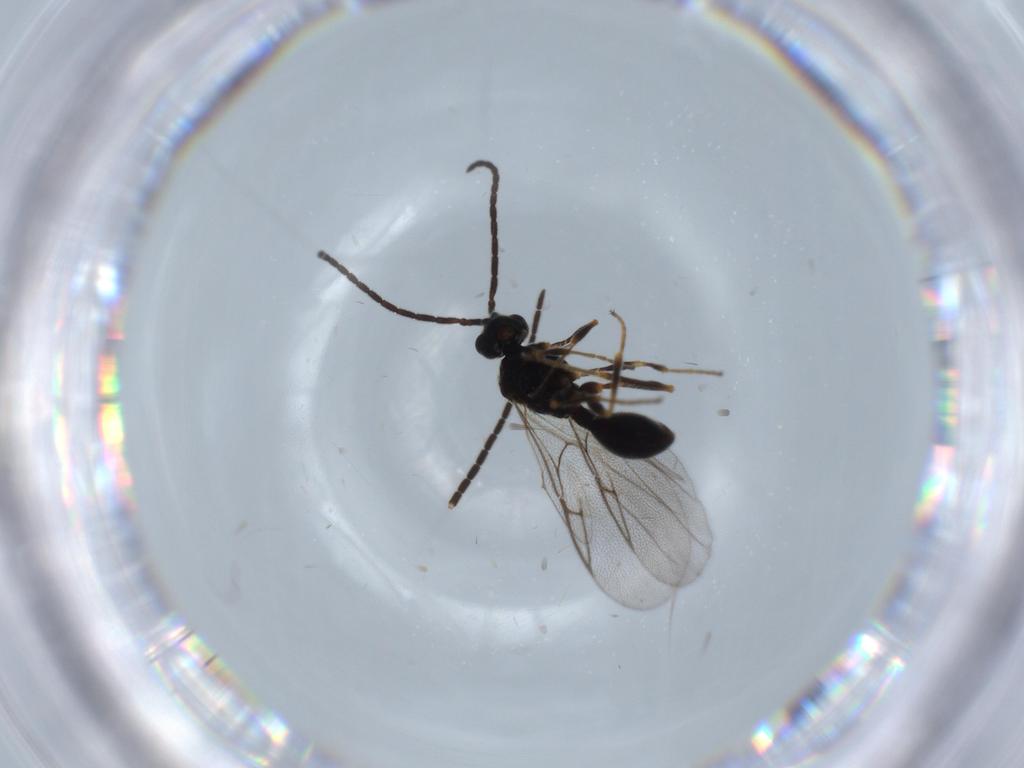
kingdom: Animalia
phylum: Arthropoda
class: Insecta
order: Hymenoptera
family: Diapriidae
